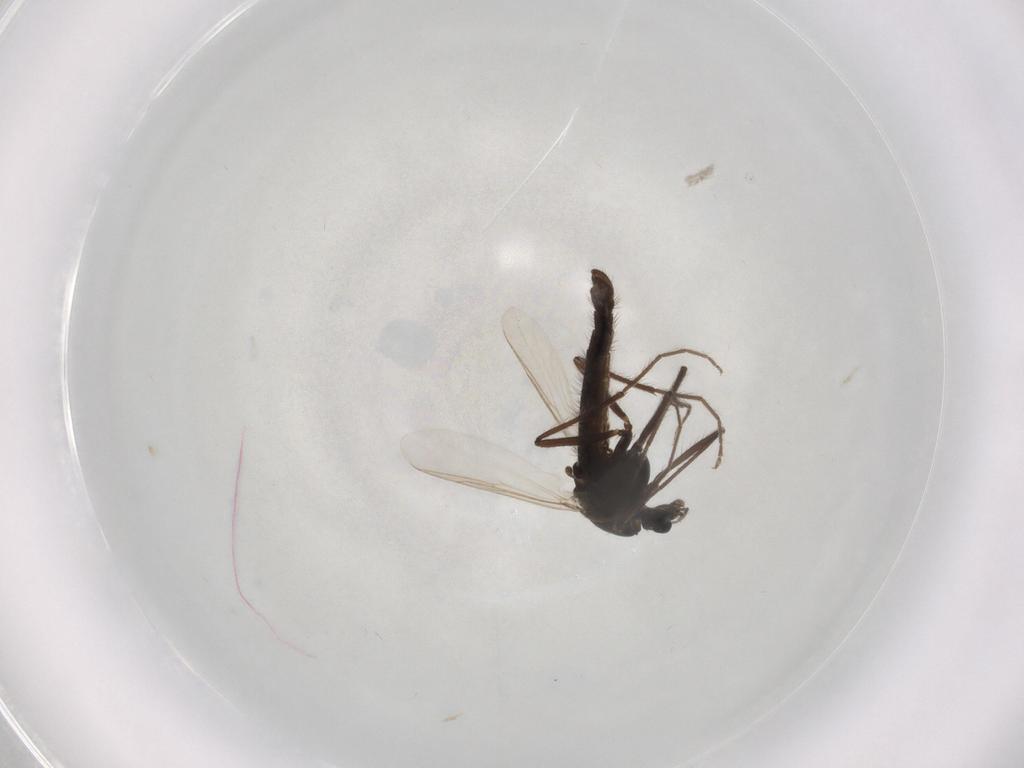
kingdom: Animalia
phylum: Arthropoda
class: Insecta
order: Diptera
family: Chironomidae
